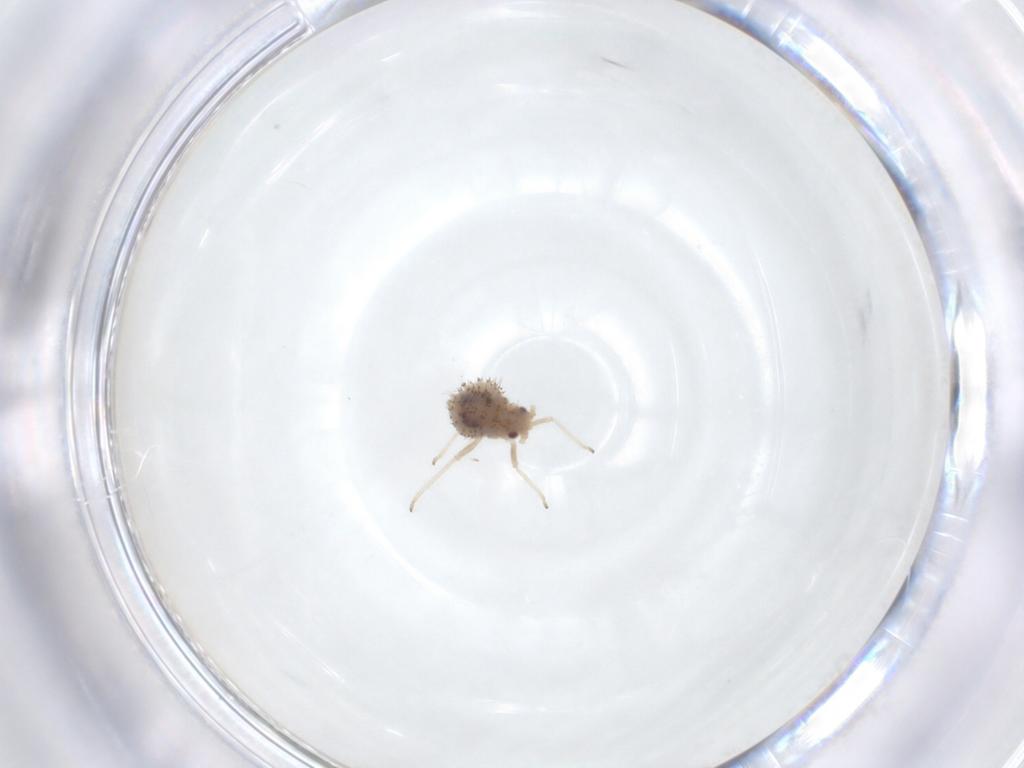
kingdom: Animalia
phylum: Arthropoda
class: Insecta
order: Hemiptera
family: Aphididae
